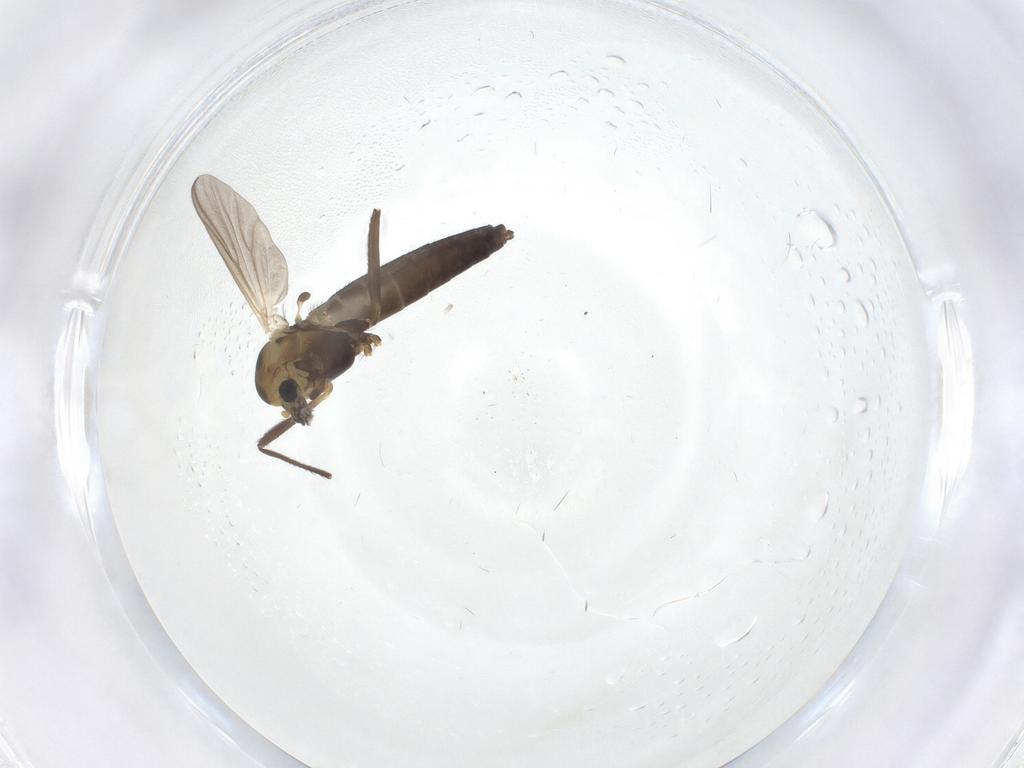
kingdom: Animalia
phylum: Arthropoda
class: Insecta
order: Diptera
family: Chironomidae
